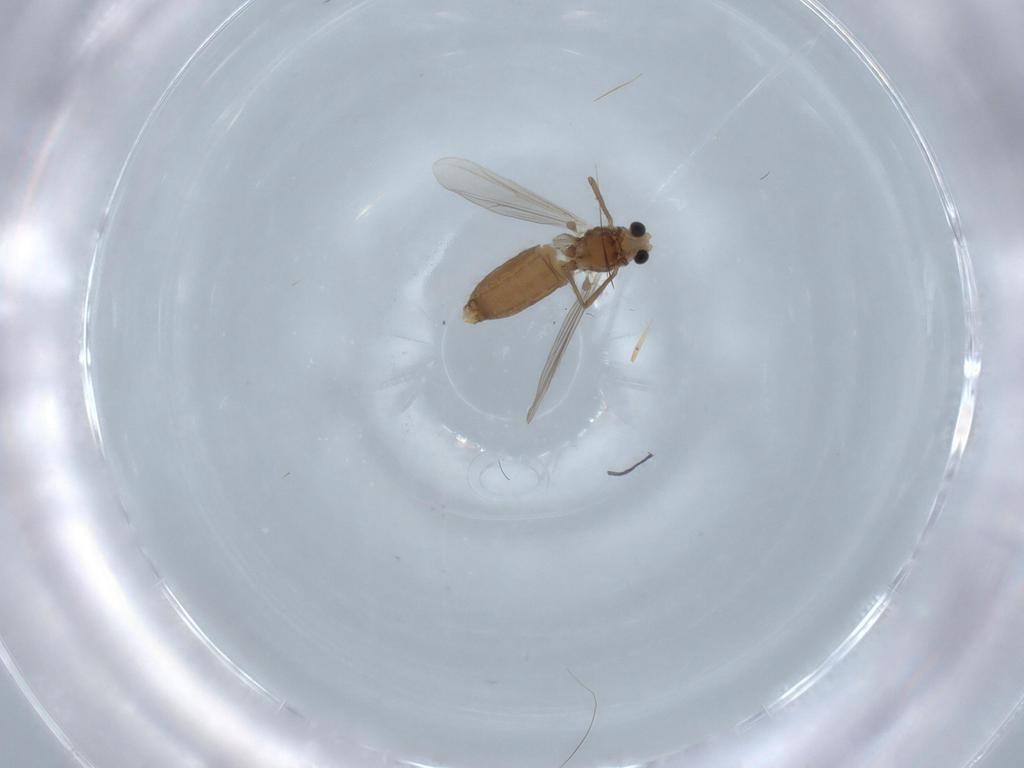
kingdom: Animalia
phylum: Arthropoda
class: Insecta
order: Diptera
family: Chironomidae
